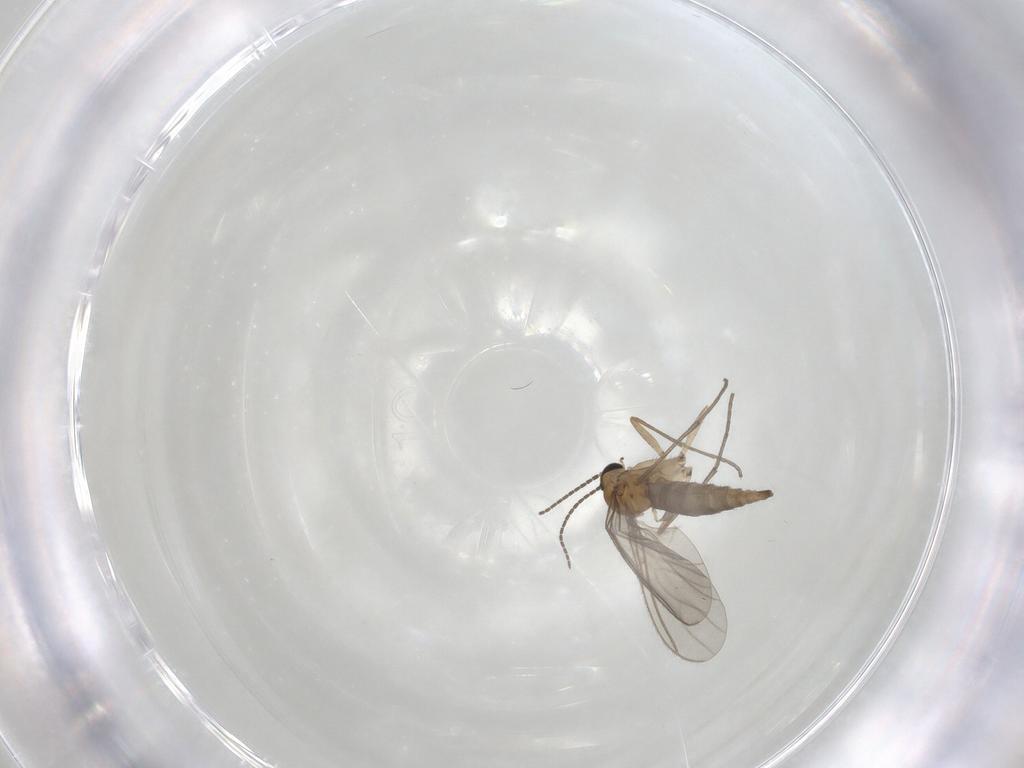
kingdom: Animalia
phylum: Arthropoda
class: Insecta
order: Diptera
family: Sciaridae
